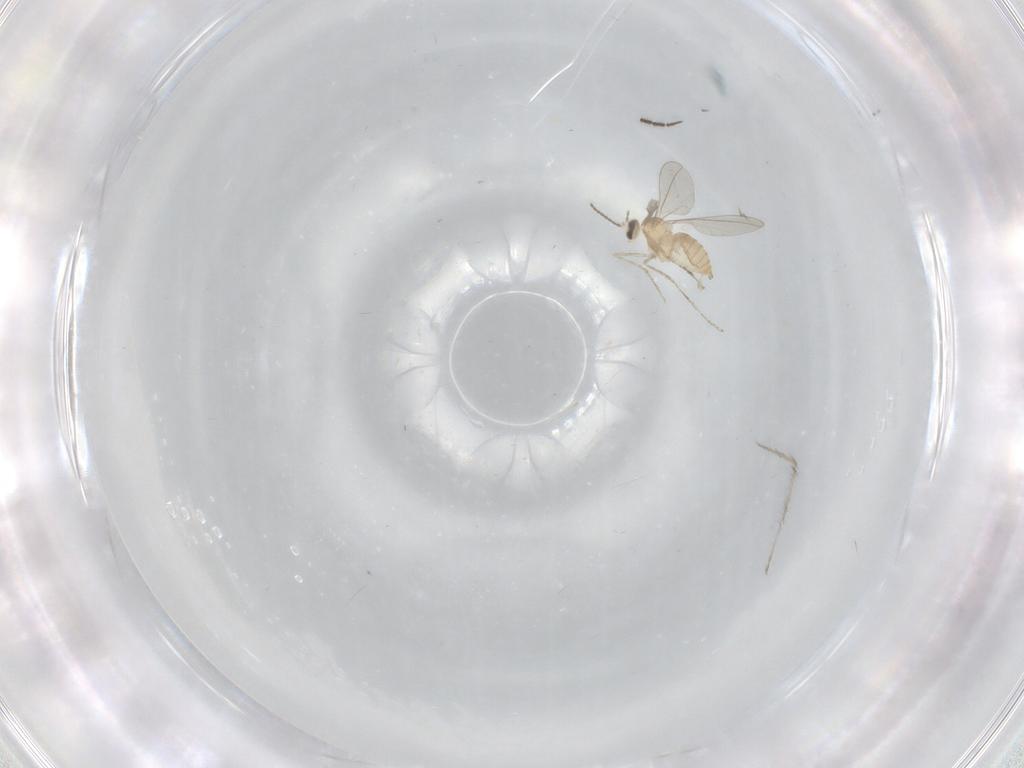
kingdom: Animalia
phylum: Arthropoda
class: Insecta
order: Diptera
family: Sciaridae
